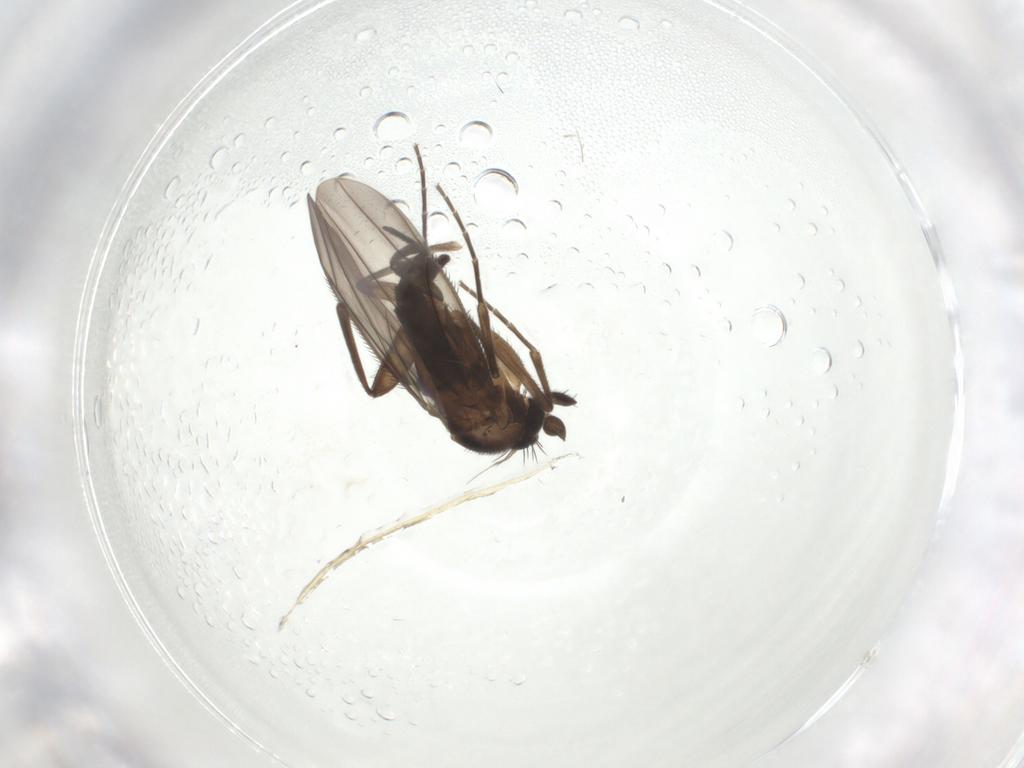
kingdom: Animalia
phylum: Arthropoda
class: Insecta
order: Diptera
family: Phoridae
